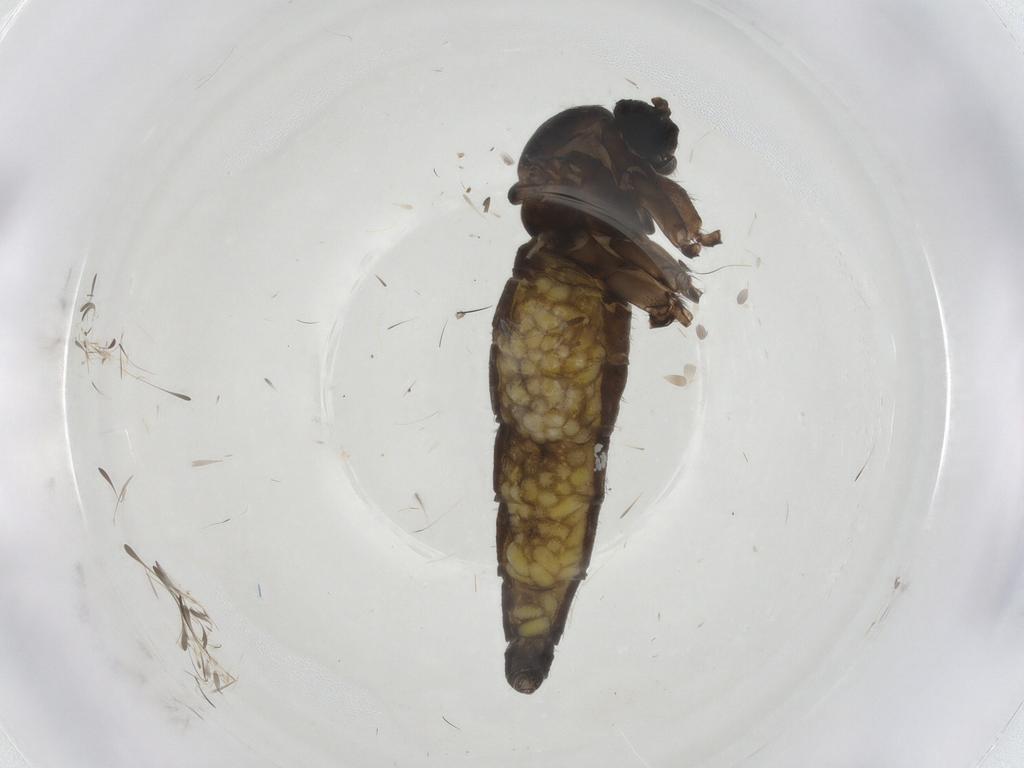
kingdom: Animalia
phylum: Arthropoda
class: Insecta
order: Diptera
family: Sciaridae
